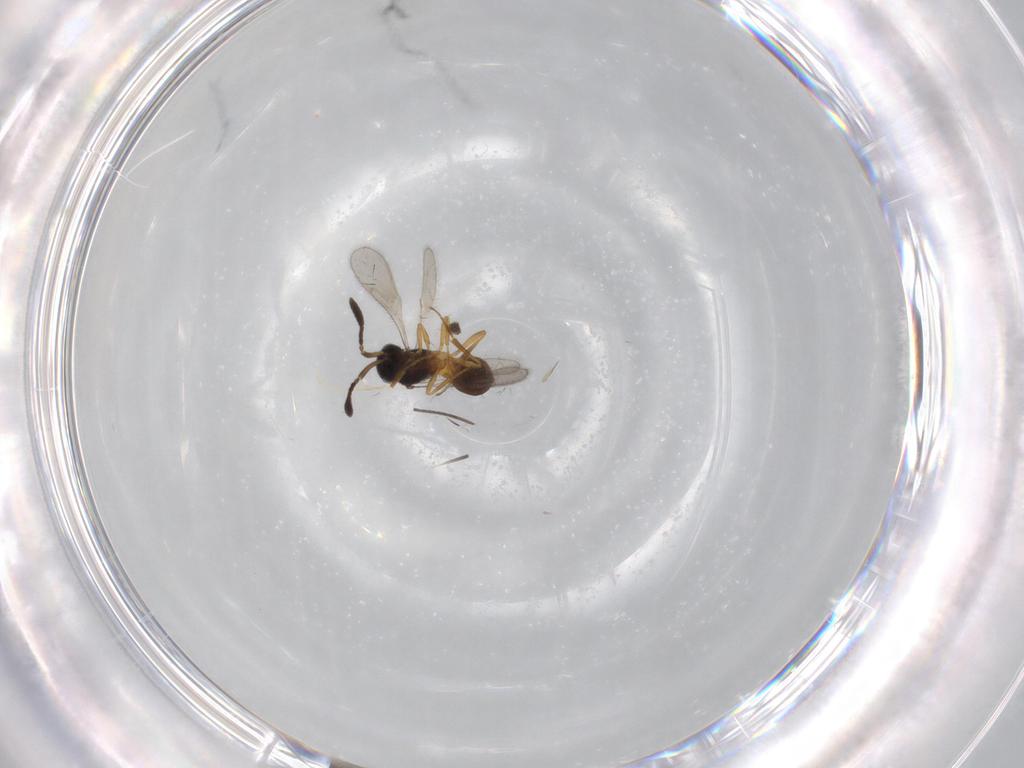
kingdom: Animalia
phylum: Arthropoda
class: Insecta
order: Hymenoptera
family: Scelionidae
